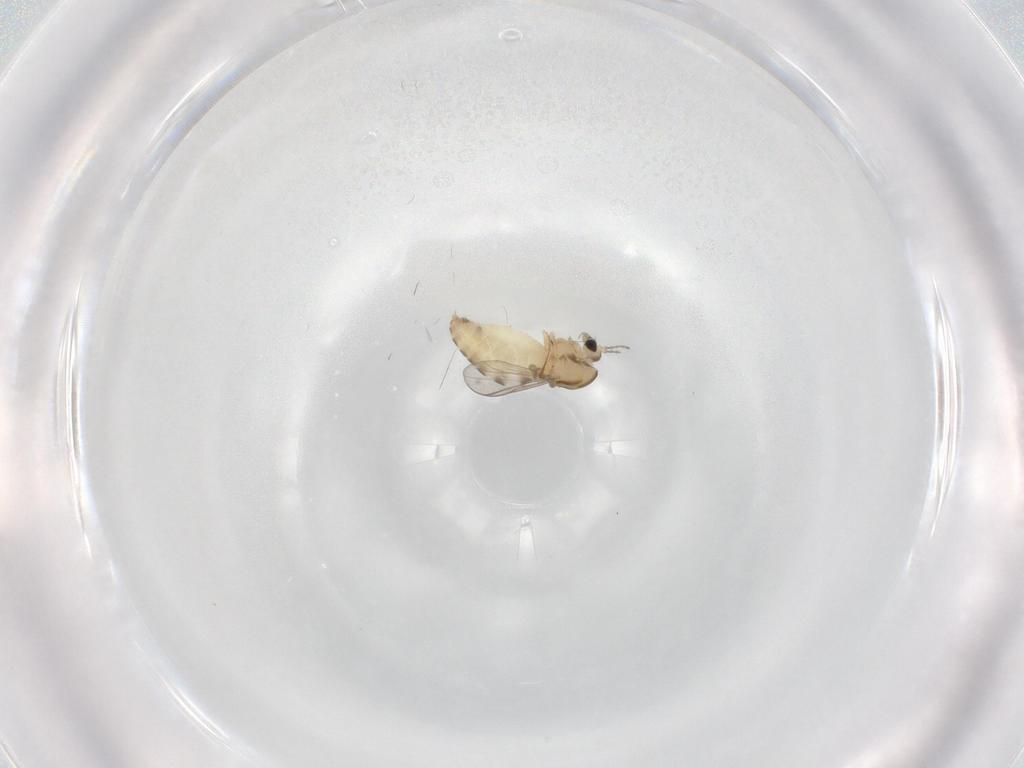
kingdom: Animalia
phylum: Arthropoda
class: Insecta
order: Diptera
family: Chironomidae
